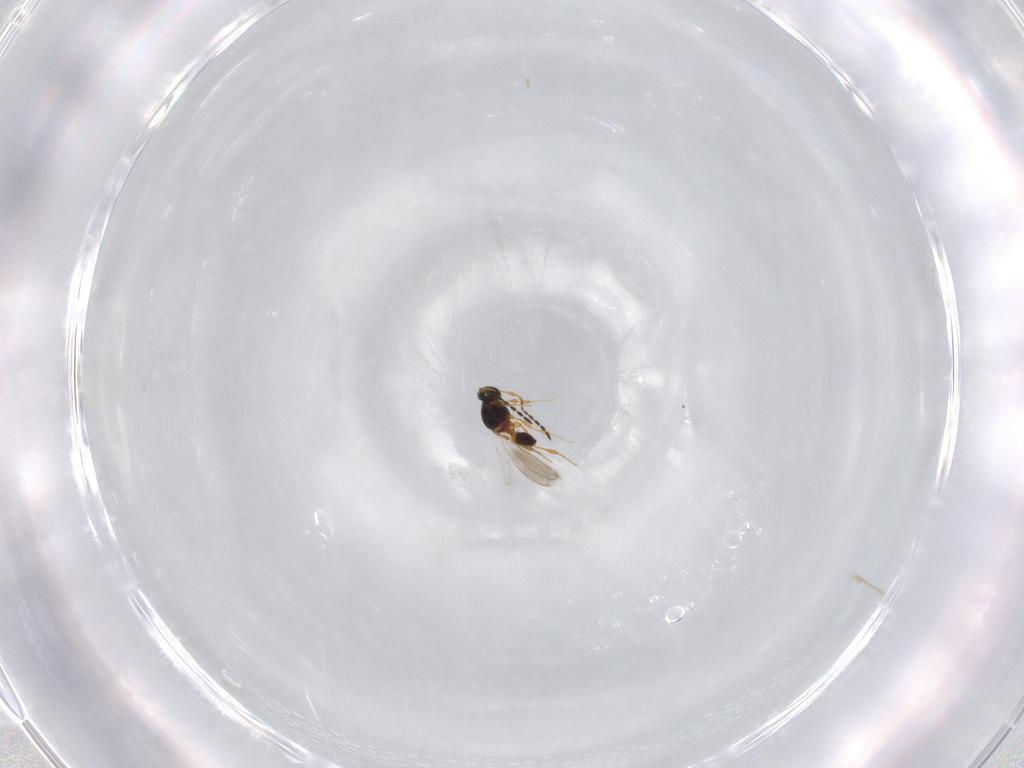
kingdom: Animalia
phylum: Arthropoda
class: Insecta
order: Hymenoptera
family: Platygastridae
